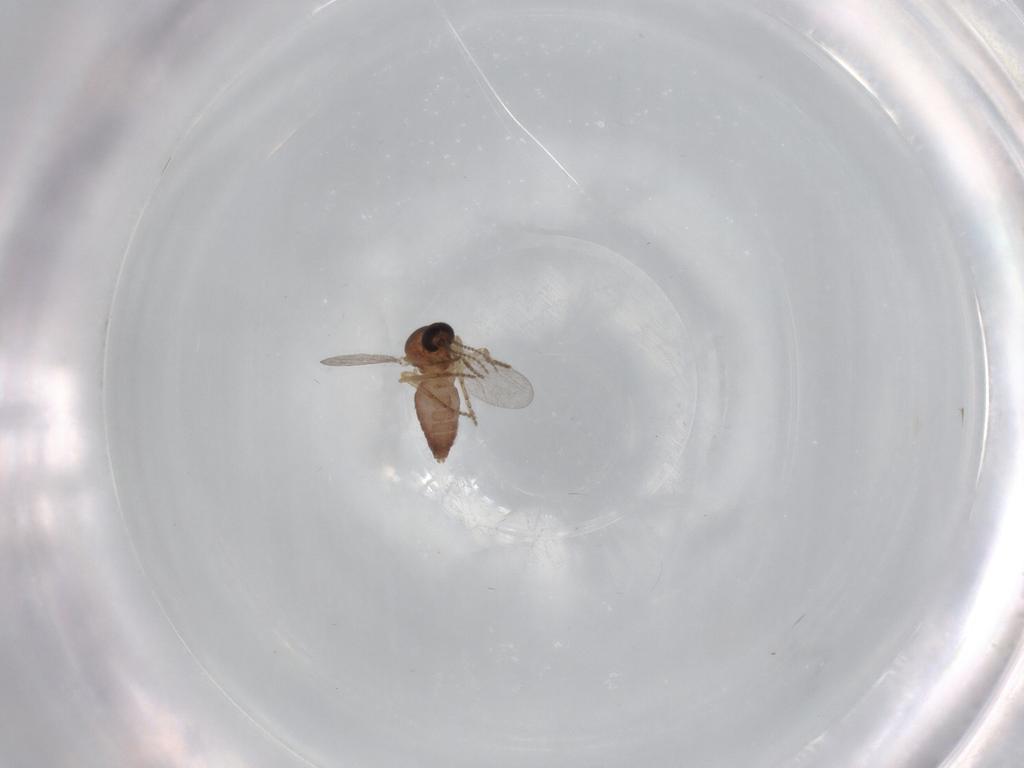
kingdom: Animalia
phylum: Arthropoda
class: Insecta
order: Diptera
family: Ceratopogonidae
